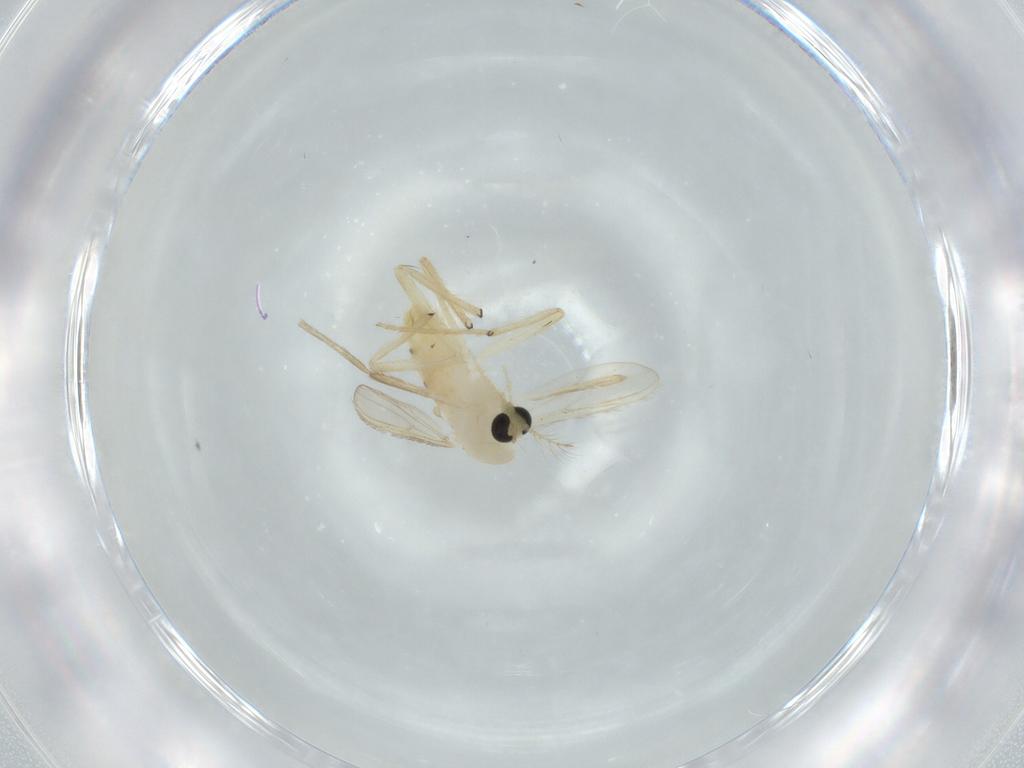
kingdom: Animalia
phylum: Arthropoda
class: Insecta
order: Diptera
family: Chironomidae
